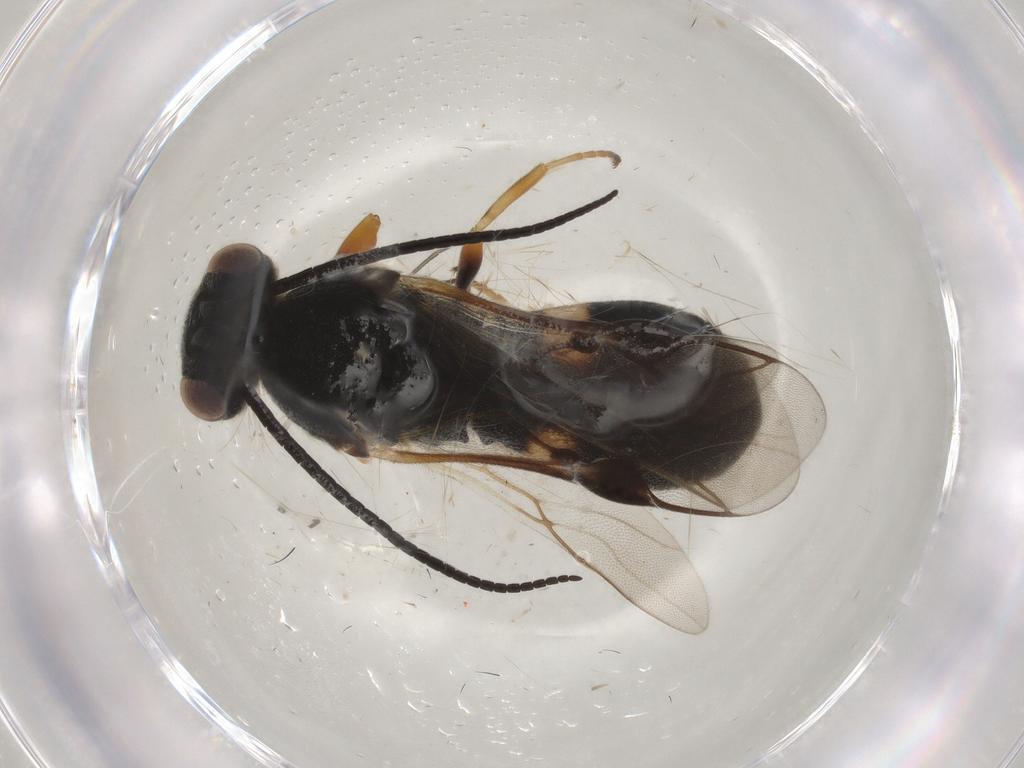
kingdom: Animalia
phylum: Arthropoda
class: Insecta
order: Hymenoptera
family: Braconidae
